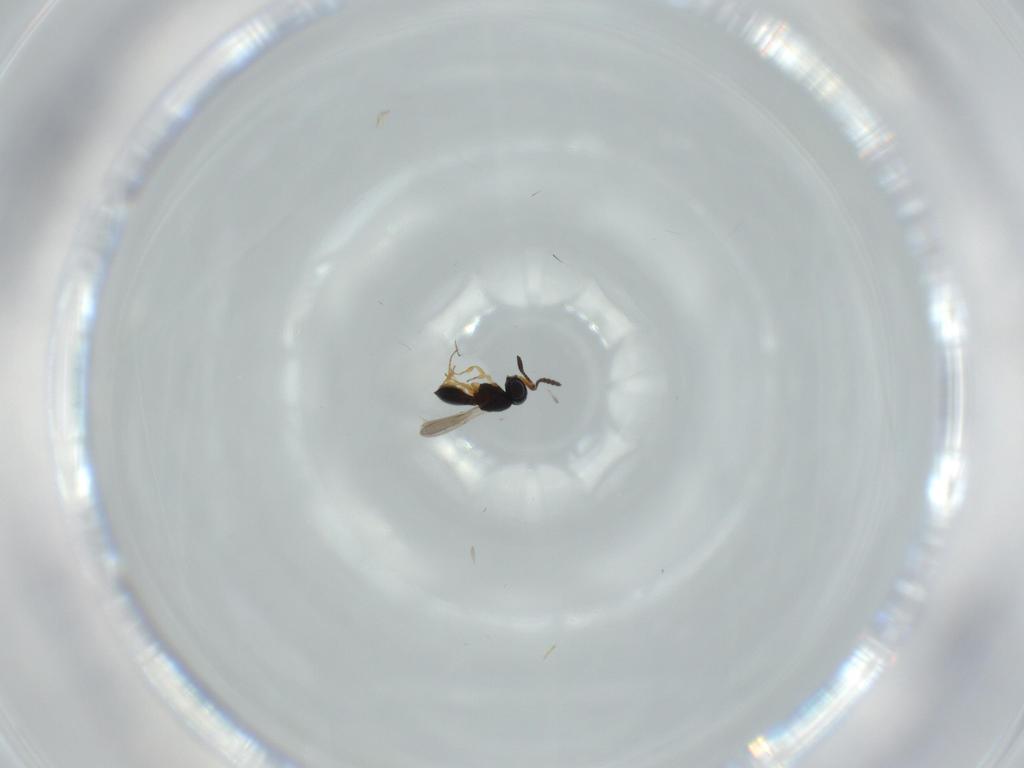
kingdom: Animalia
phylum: Arthropoda
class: Insecta
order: Hymenoptera
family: Scelionidae
